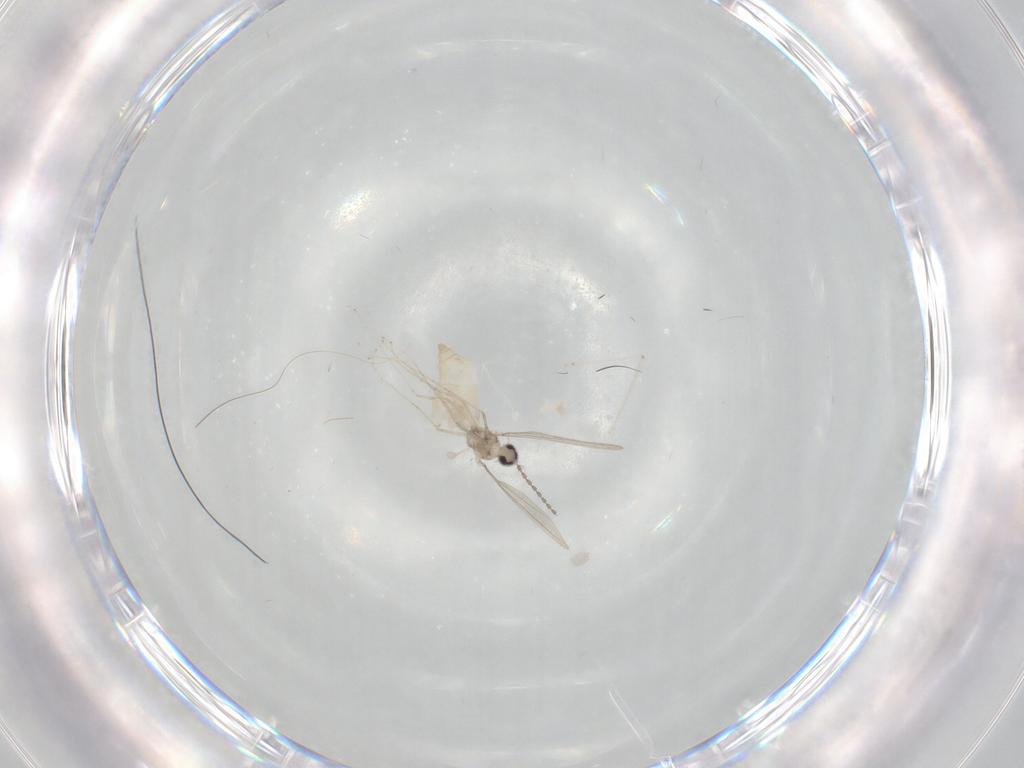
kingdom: Animalia
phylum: Arthropoda
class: Insecta
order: Diptera
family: Cecidomyiidae
